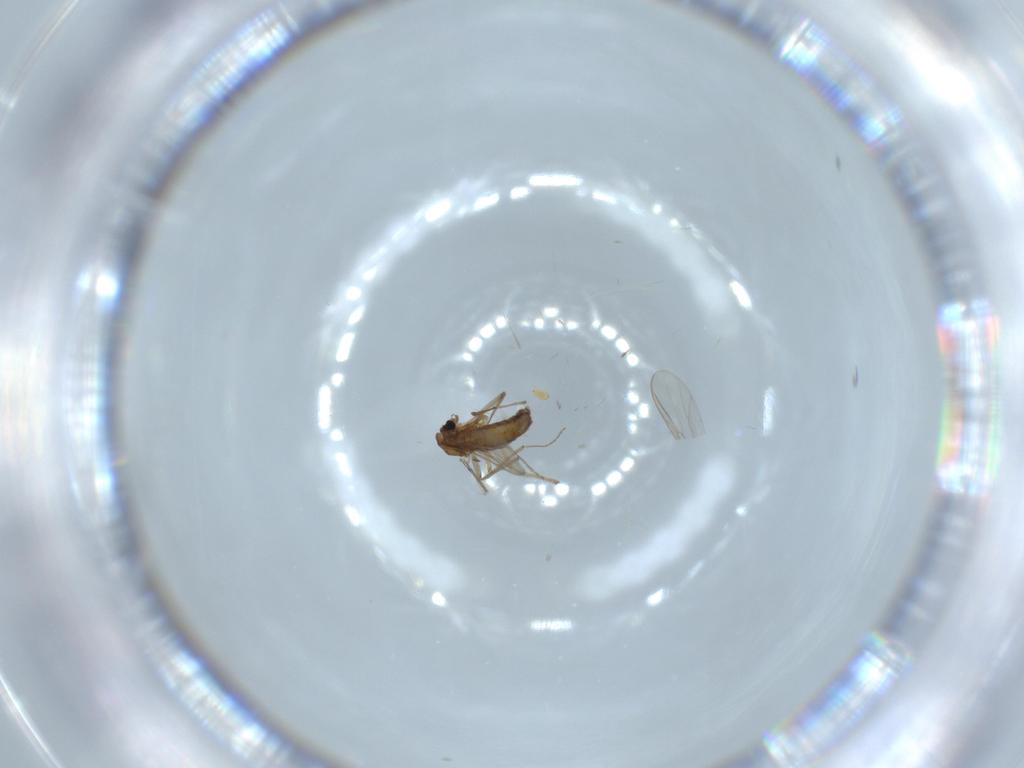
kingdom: Animalia
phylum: Arthropoda
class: Insecta
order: Diptera
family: Chironomidae
